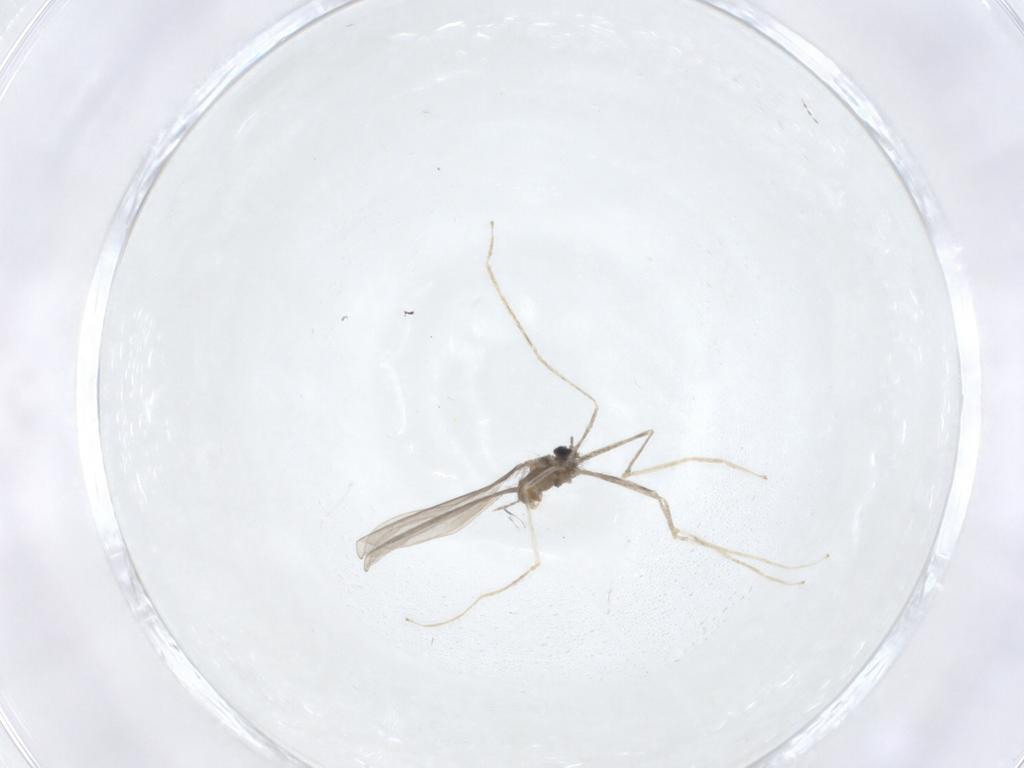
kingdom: Animalia
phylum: Arthropoda
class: Insecta
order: Diptera
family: Cecidomyiidae
